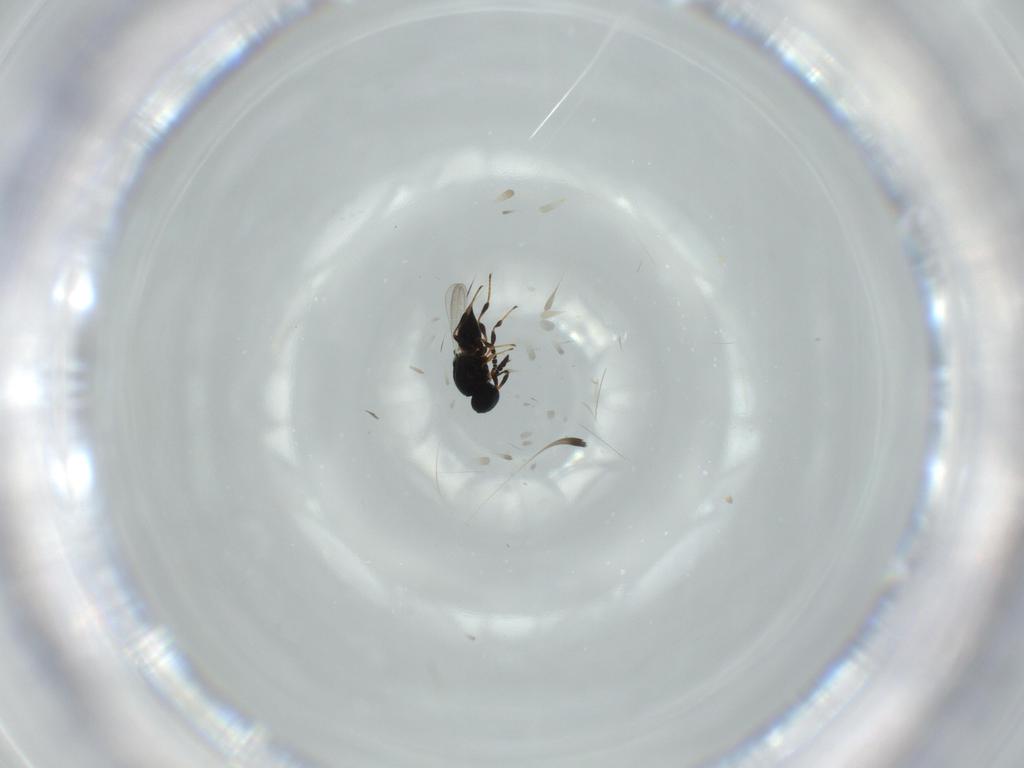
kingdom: Animalia
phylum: Arthropoda
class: Insecta
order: Hymenoptera
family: Platygastridae
